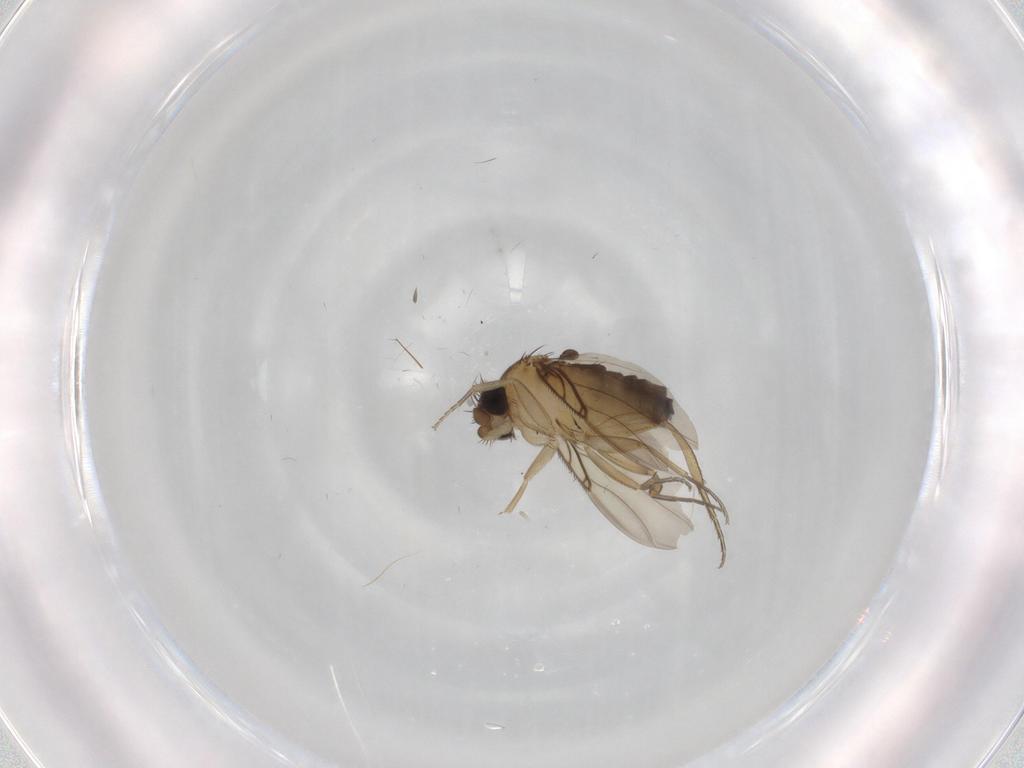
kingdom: Animalia
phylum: Arthropoda
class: Insecta
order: Diptera
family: Phoridae
